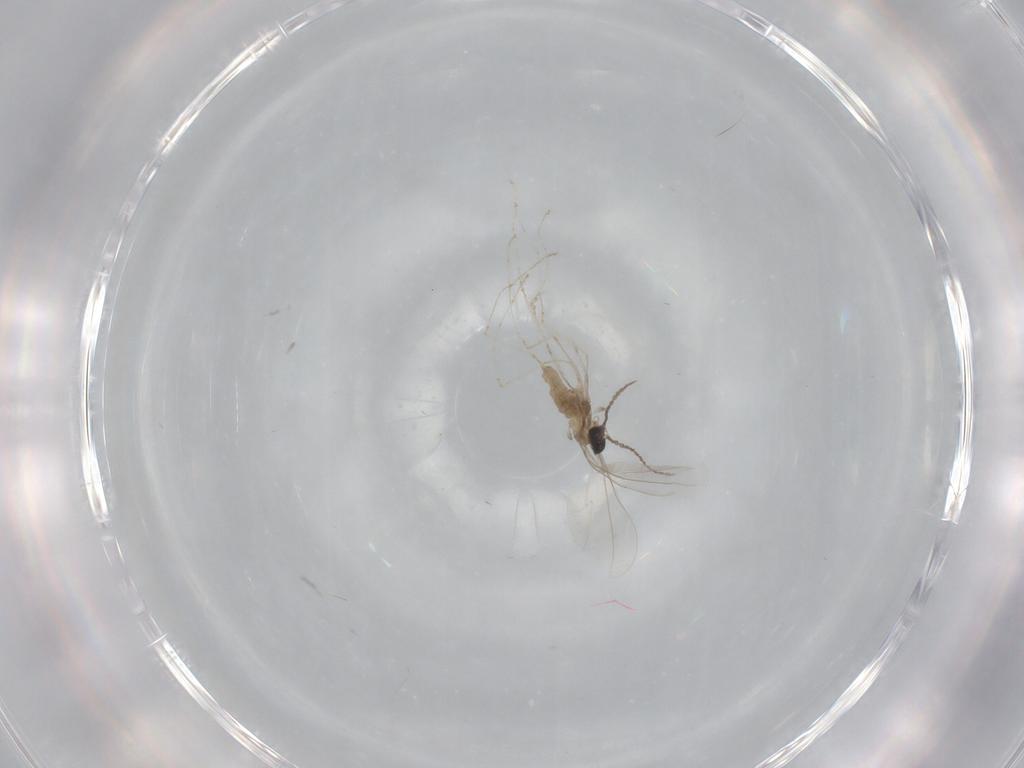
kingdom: Animalia
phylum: Arthropoda
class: Insecta
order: Diptera
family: Cecidomyiidae
